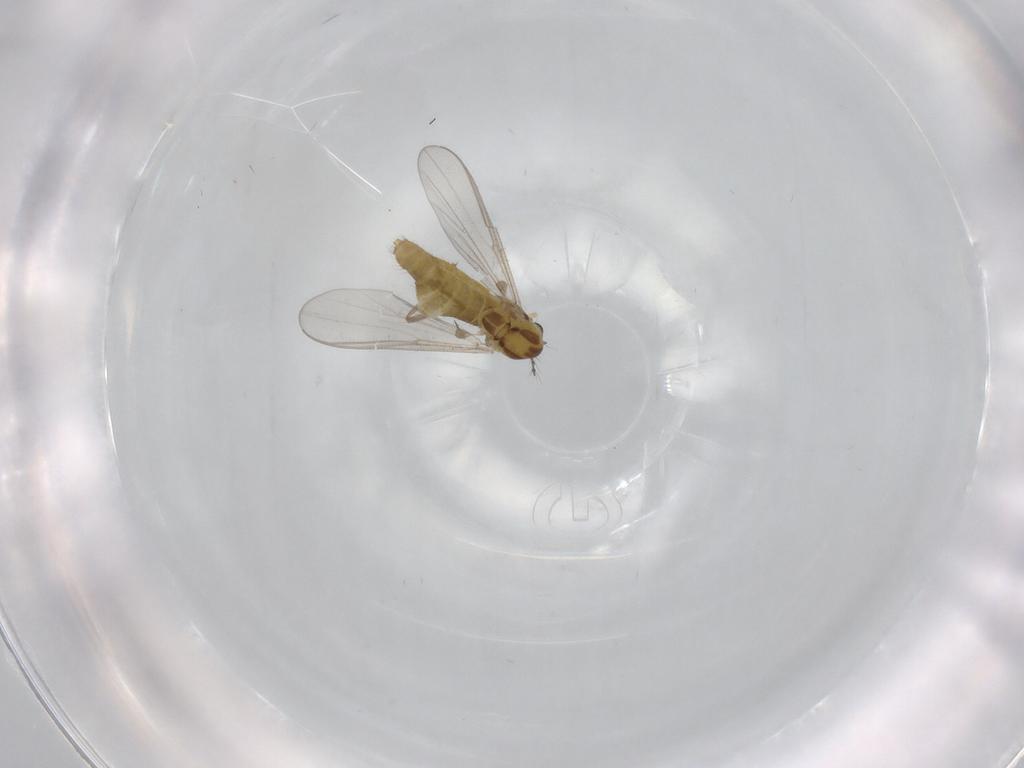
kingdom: Animalia
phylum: Arthropoda
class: Insecta
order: Diptera
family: Chironomidae
